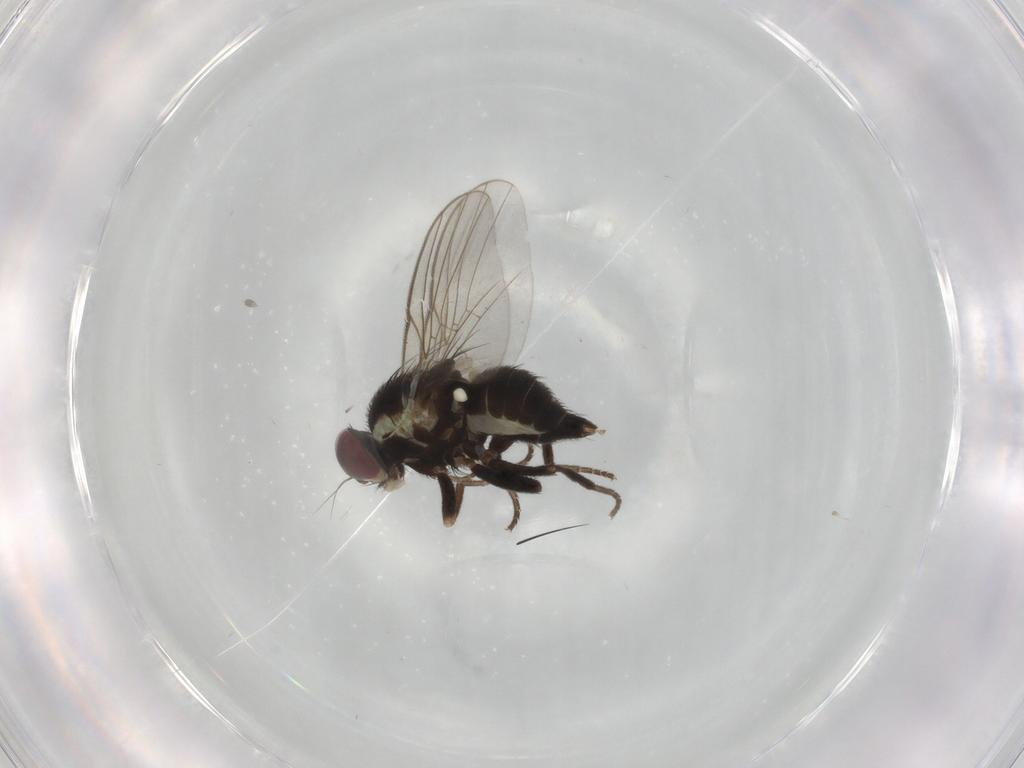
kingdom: Animalia
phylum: Arthropoda
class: Insecta
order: Diptera
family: Agromyzidae
